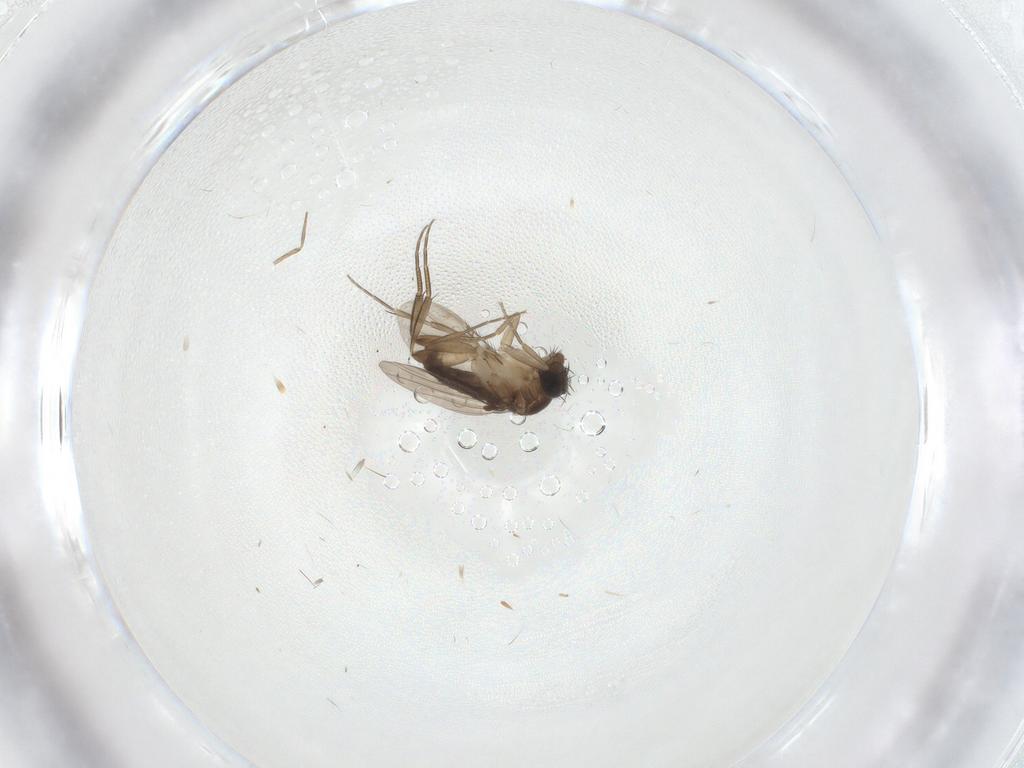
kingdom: Animalia
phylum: Arthropoda
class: Insecta
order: Diptera
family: Phoridae
